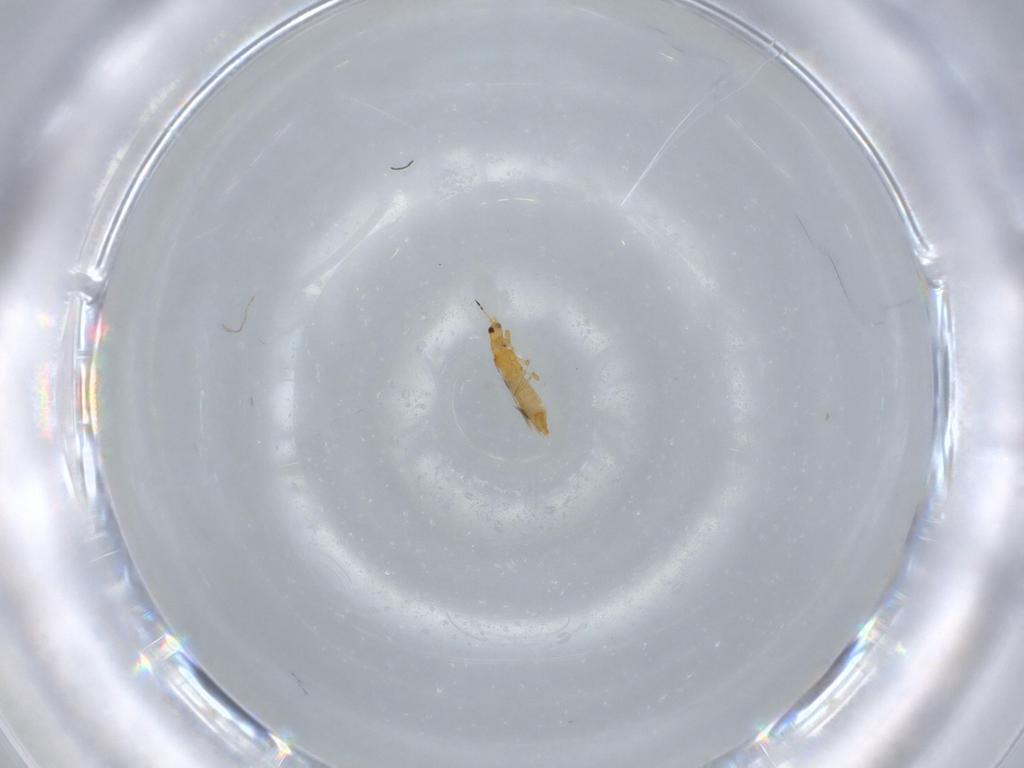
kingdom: Animalia
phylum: Arthropoda
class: Insecta
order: Thysanoptera
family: Thripidae
